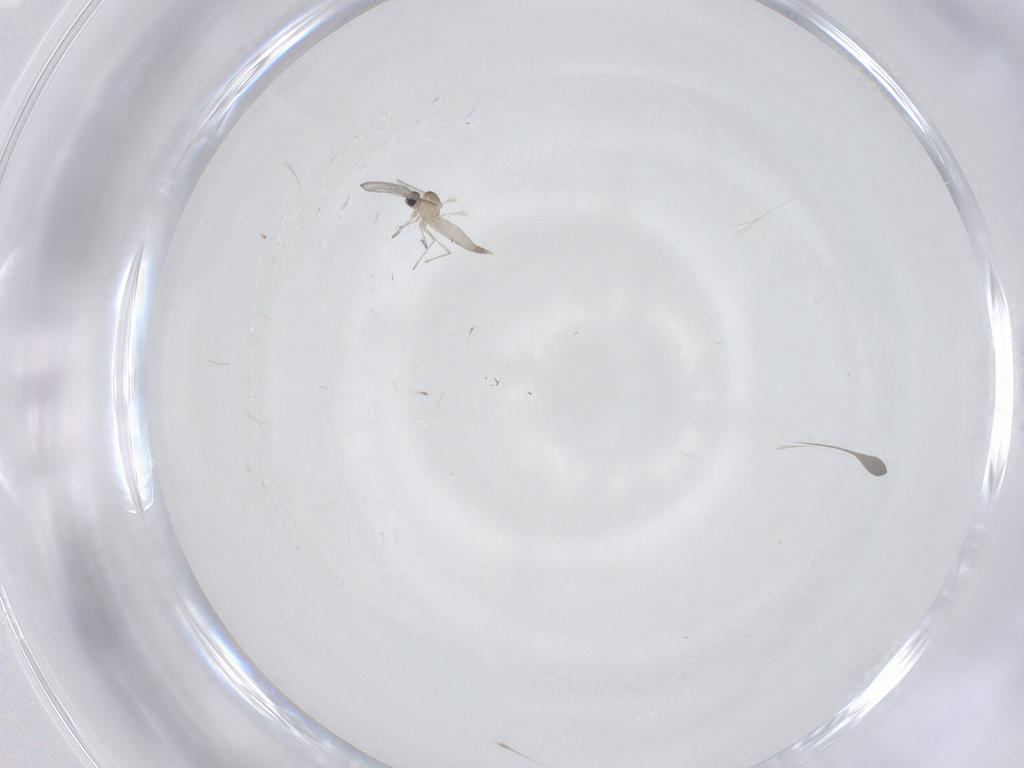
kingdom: Animalia
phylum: Arthropoda
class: Insecta
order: Diptera
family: Cecidomyiidae
